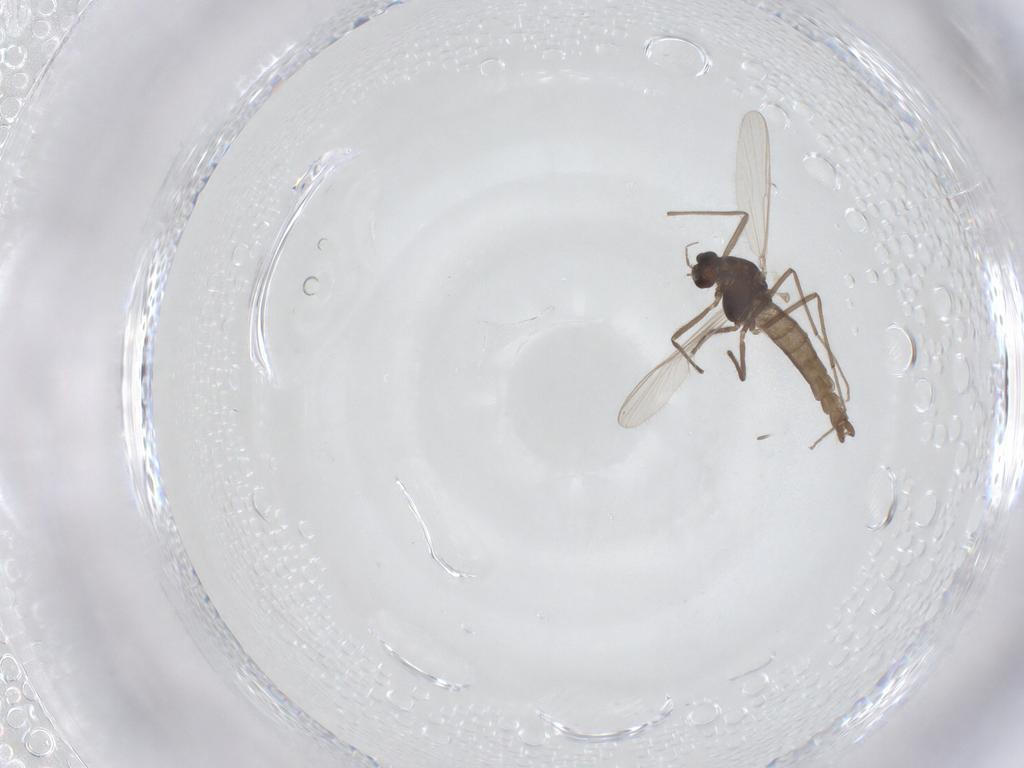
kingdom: Animalia
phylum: Arthropoda
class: Insecta
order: Diptera
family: Chironomidae
